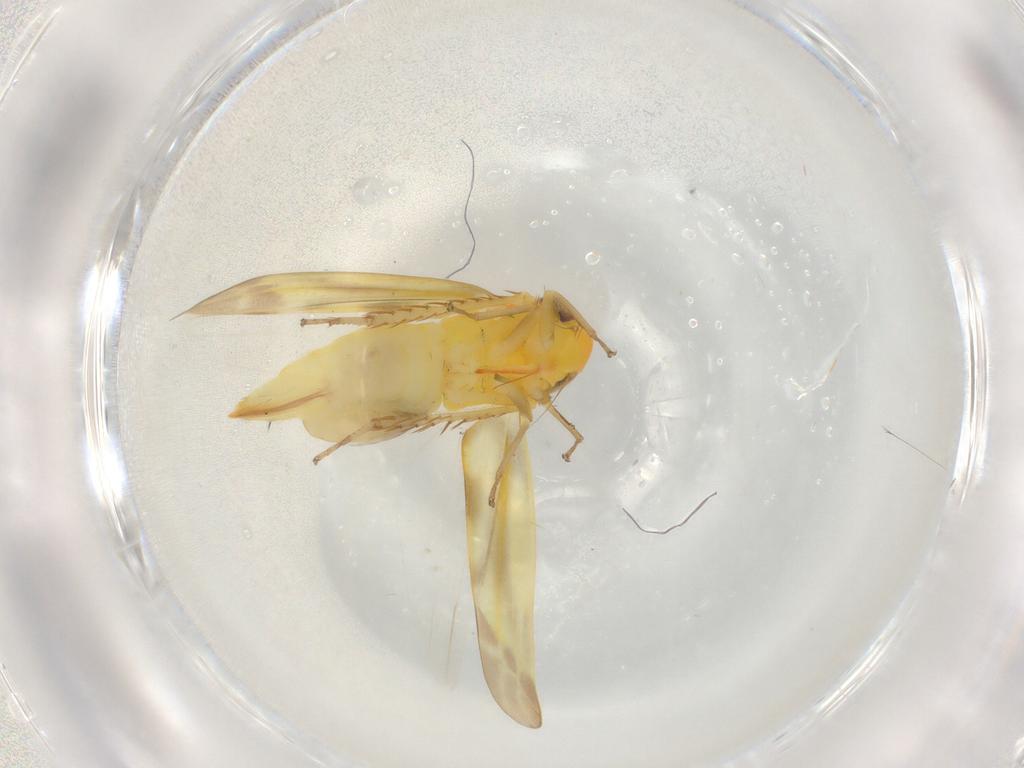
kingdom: Animalia
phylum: Arthropoda
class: Insecta
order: Hemiptera
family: Cicadellidae
